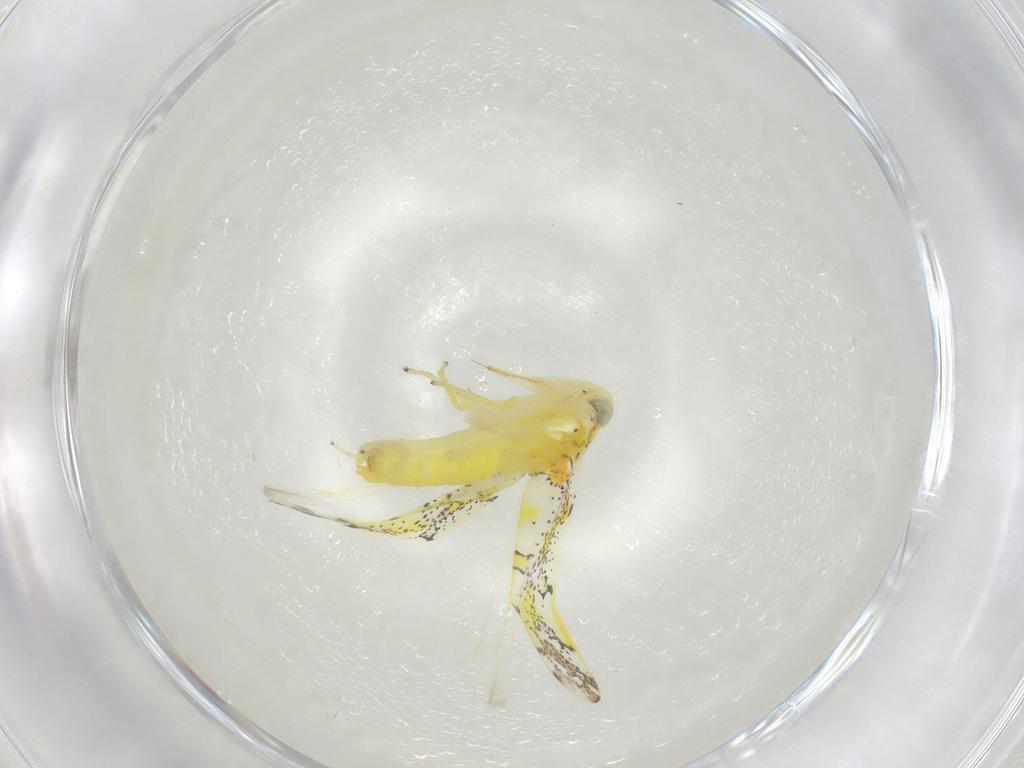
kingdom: Animalia
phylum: Arthropoda
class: Insecta
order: Hemiptera
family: Cicadellidae
